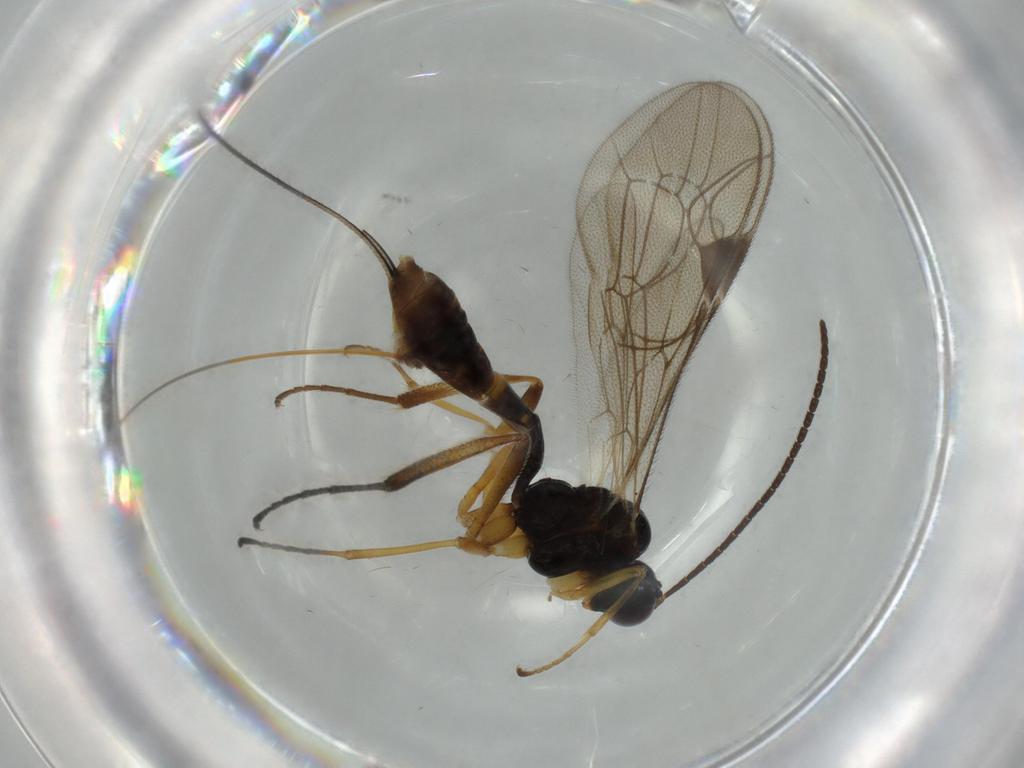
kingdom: Animalia
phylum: Arthropoda
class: Insecta
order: Hymenoptera
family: Ichneumonidae
